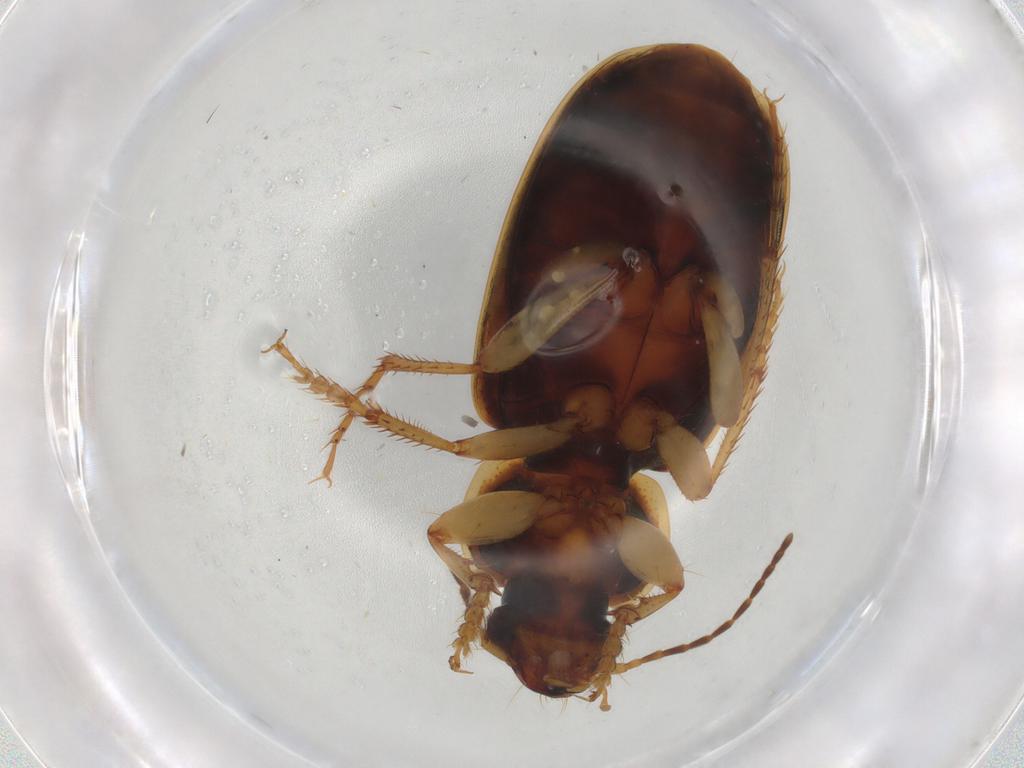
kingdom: Animalia
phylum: Arthropoda
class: Insecta
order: Coleoptera
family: Carabidae
